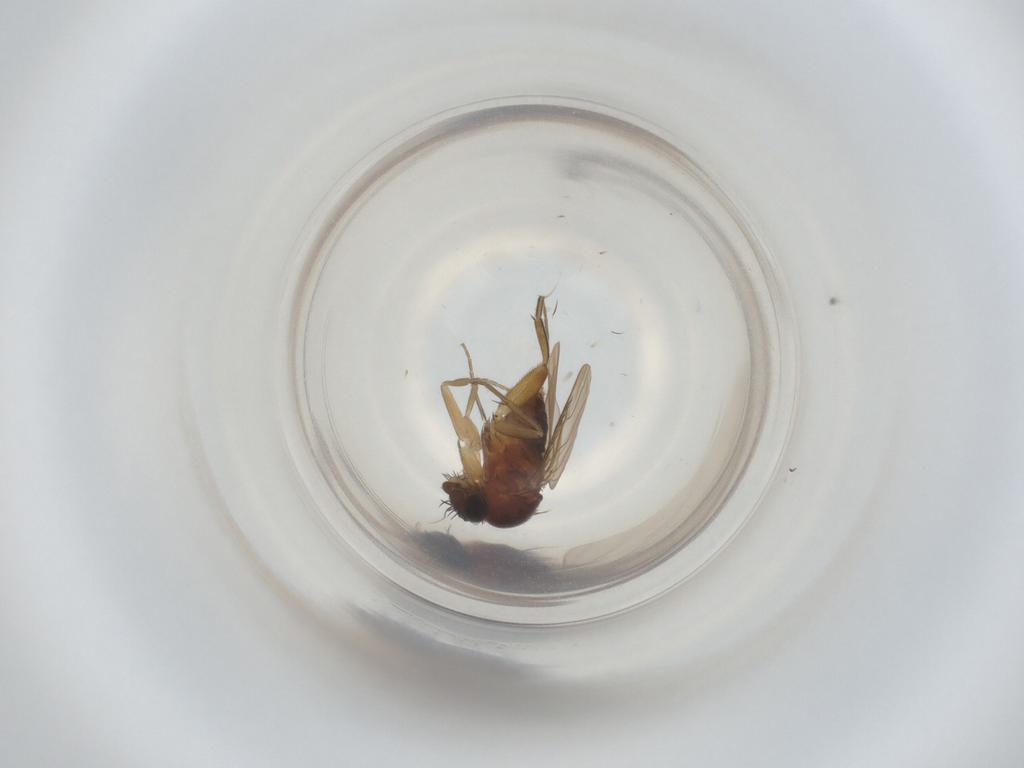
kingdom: Animalia
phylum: Arthropoda
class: Insecta
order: Diptera
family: Phoridae
